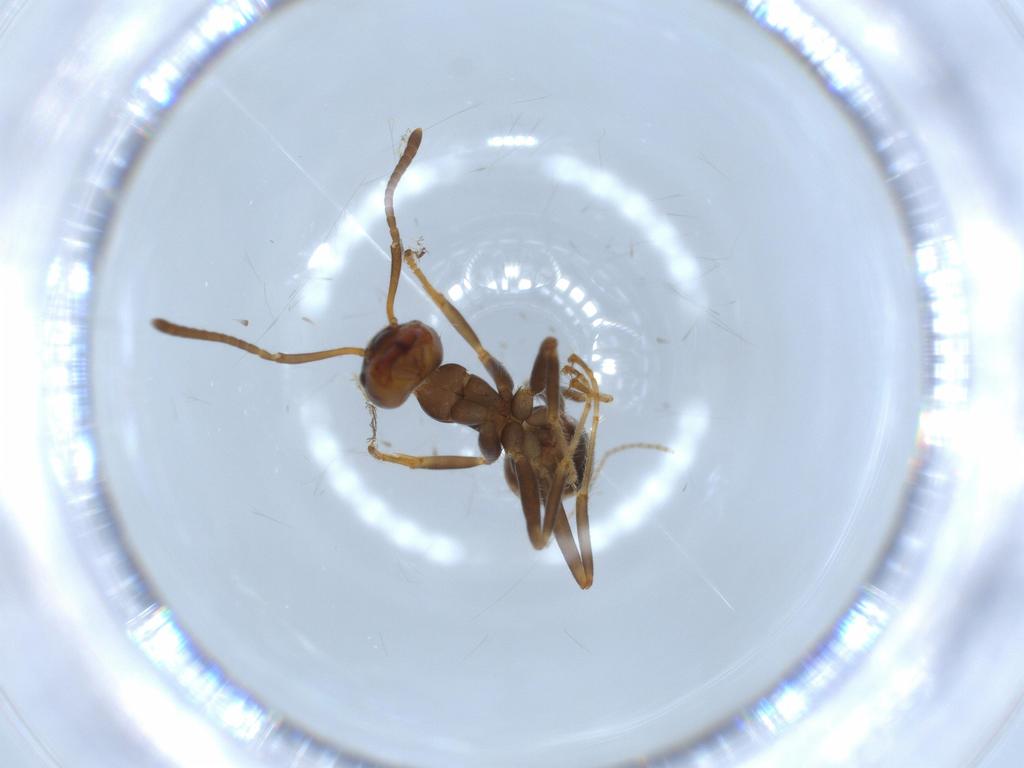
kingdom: Animalia
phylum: Arthropoda
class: Insecta
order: Hymenoptera
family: Formicidae
